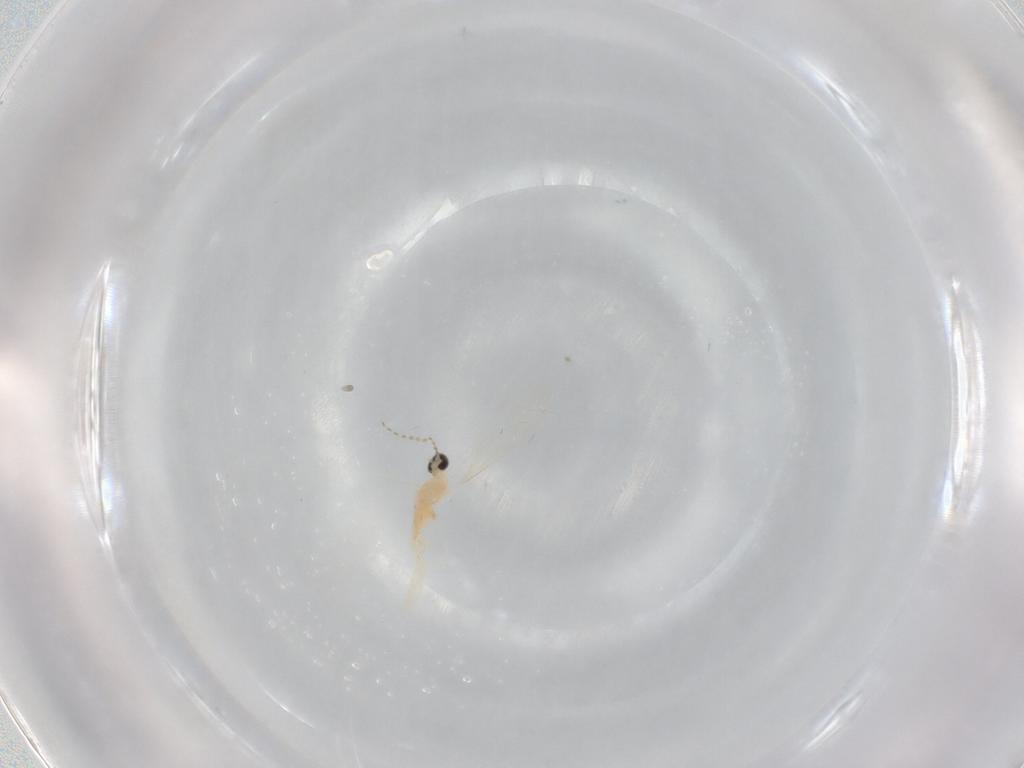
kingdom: Animalia
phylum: Arthropoda
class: Insecta
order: Diptera
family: Cecidomyiidae
